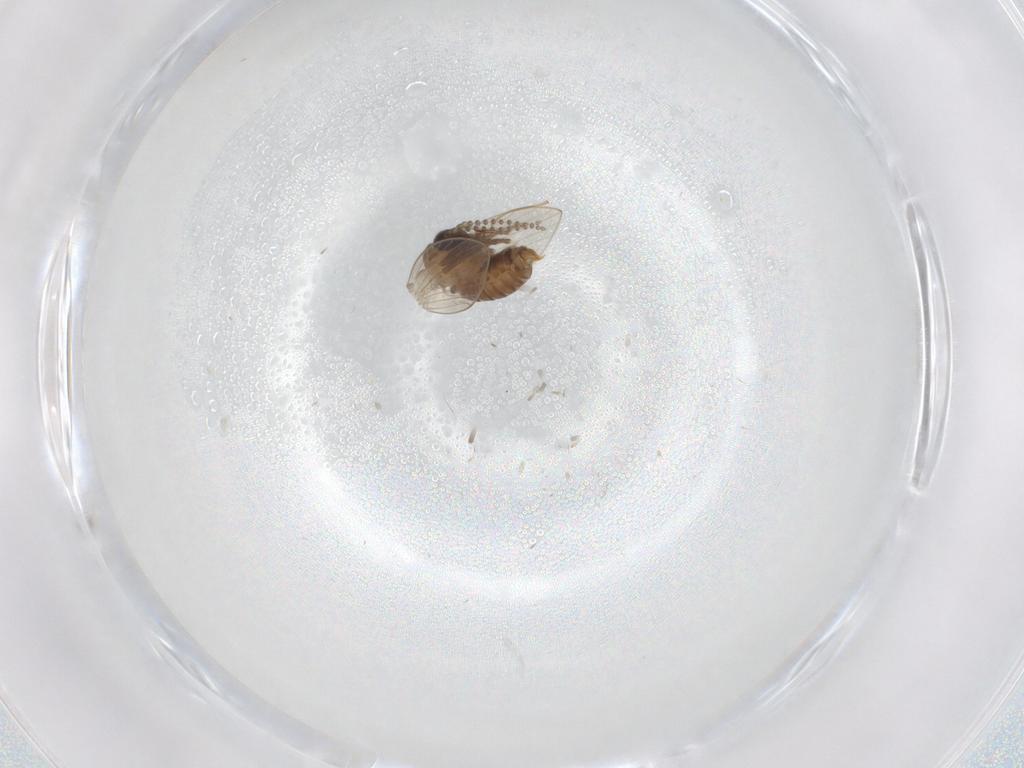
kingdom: Animalia
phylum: Arthropoda
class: Insecta
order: Diptera
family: Psychodidae
